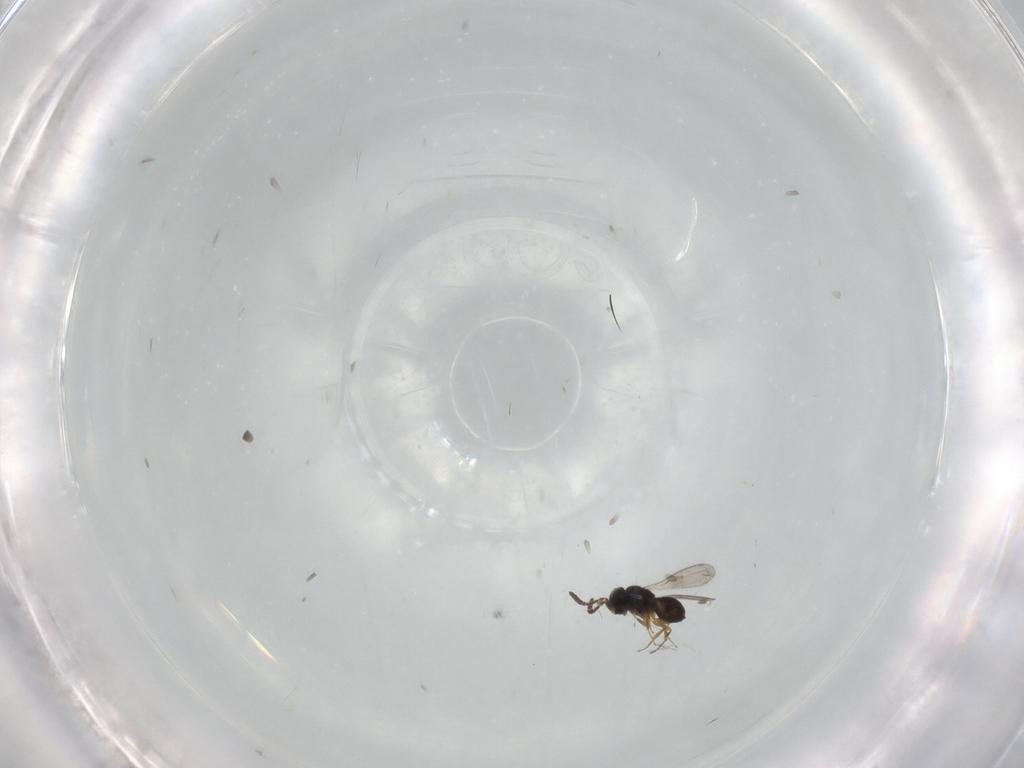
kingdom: Animalia
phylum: Arthropoda
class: Insecta
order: Hymenoptera
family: Scelionidae
